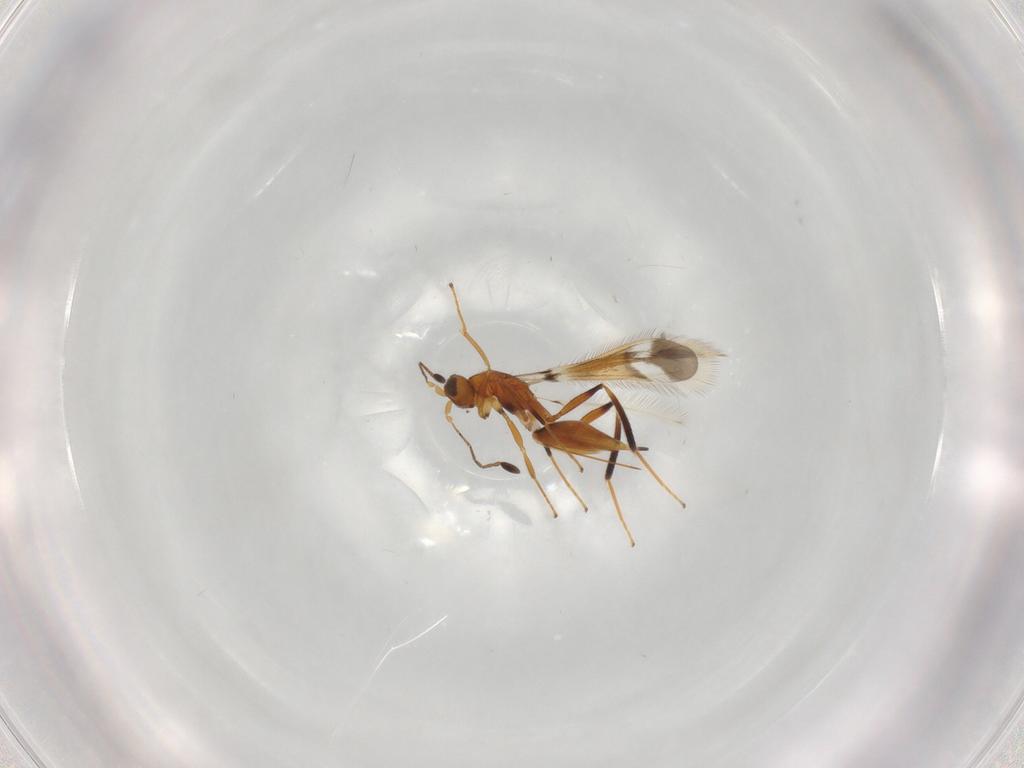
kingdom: Animalia
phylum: Arthropoda
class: Insecta
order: Hymenoptera
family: Mymaridae
